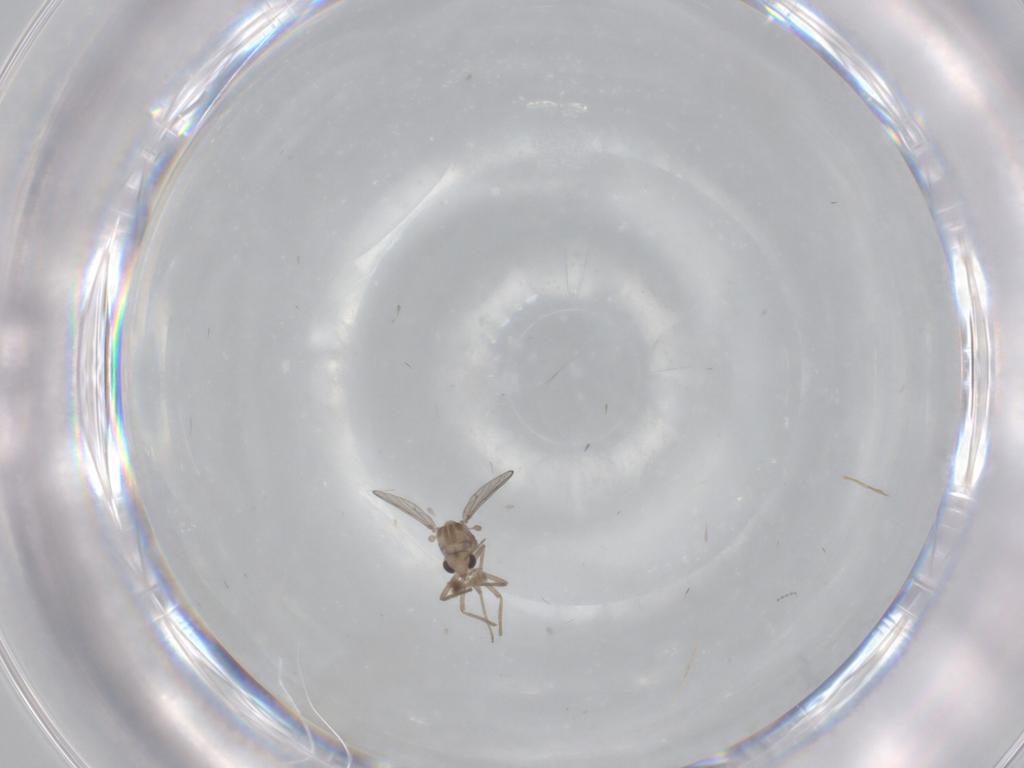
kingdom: Animalia
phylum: Arthropoda
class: Insecta
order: Diptera
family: Chironomidae
